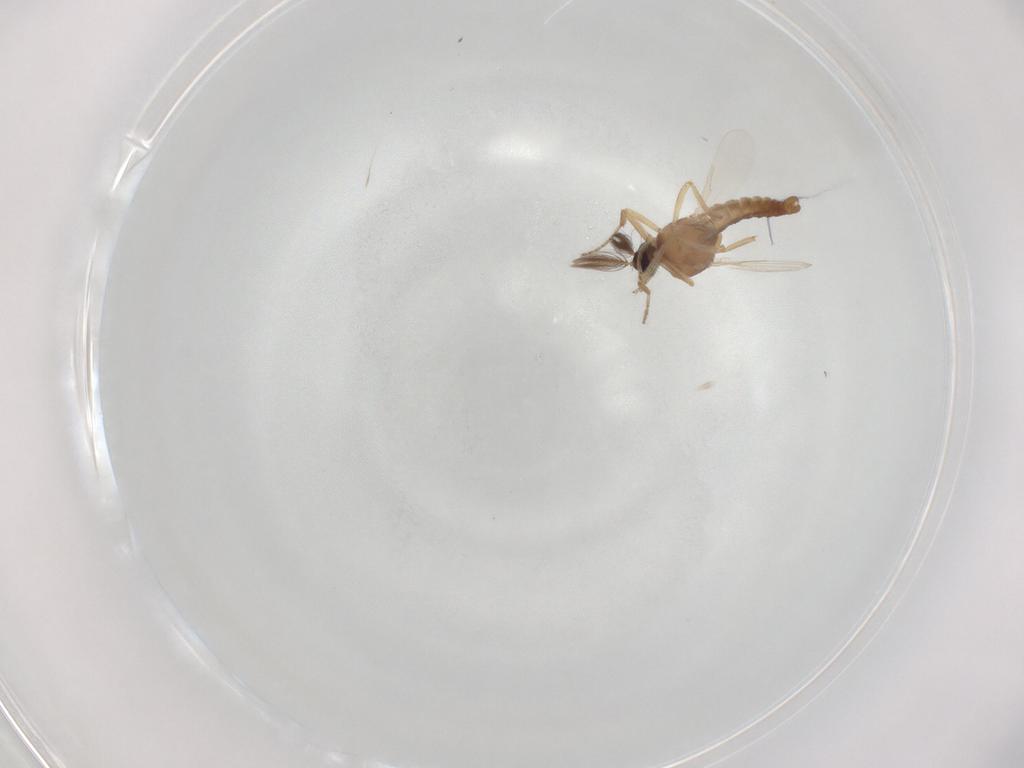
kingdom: Animalia
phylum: Arthropoda
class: Insecta
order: Diptera
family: Ceratopogonidae
